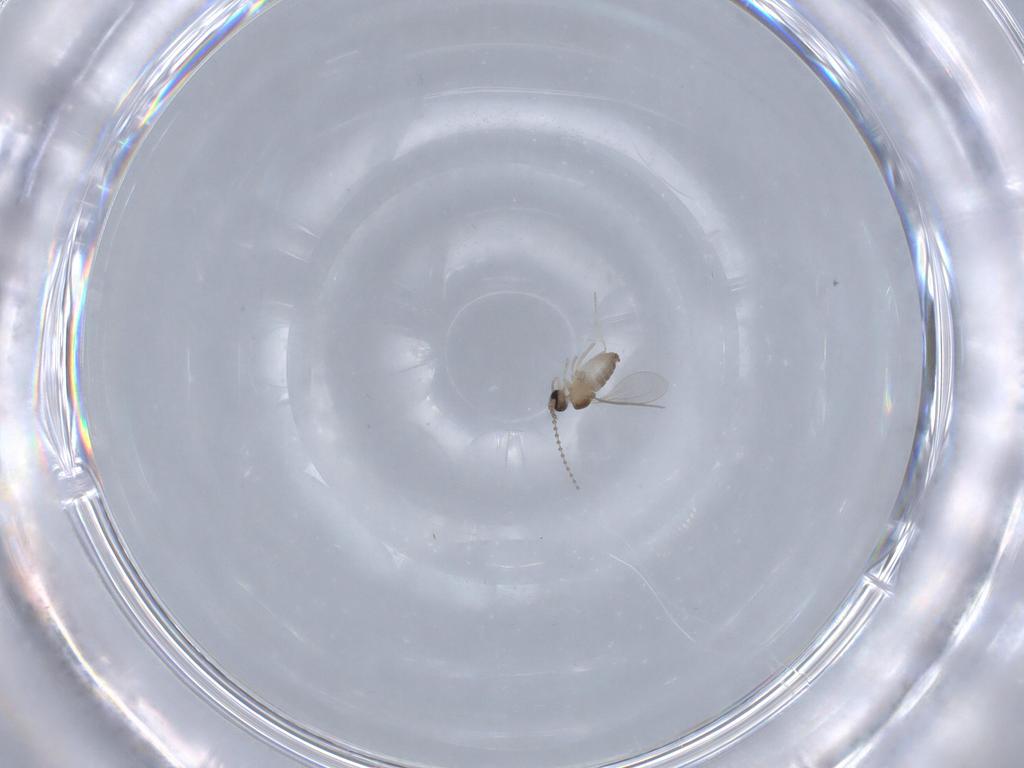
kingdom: Animalia
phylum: Arthropoda
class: Insecta
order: Diptera
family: Cecidomyiidae
